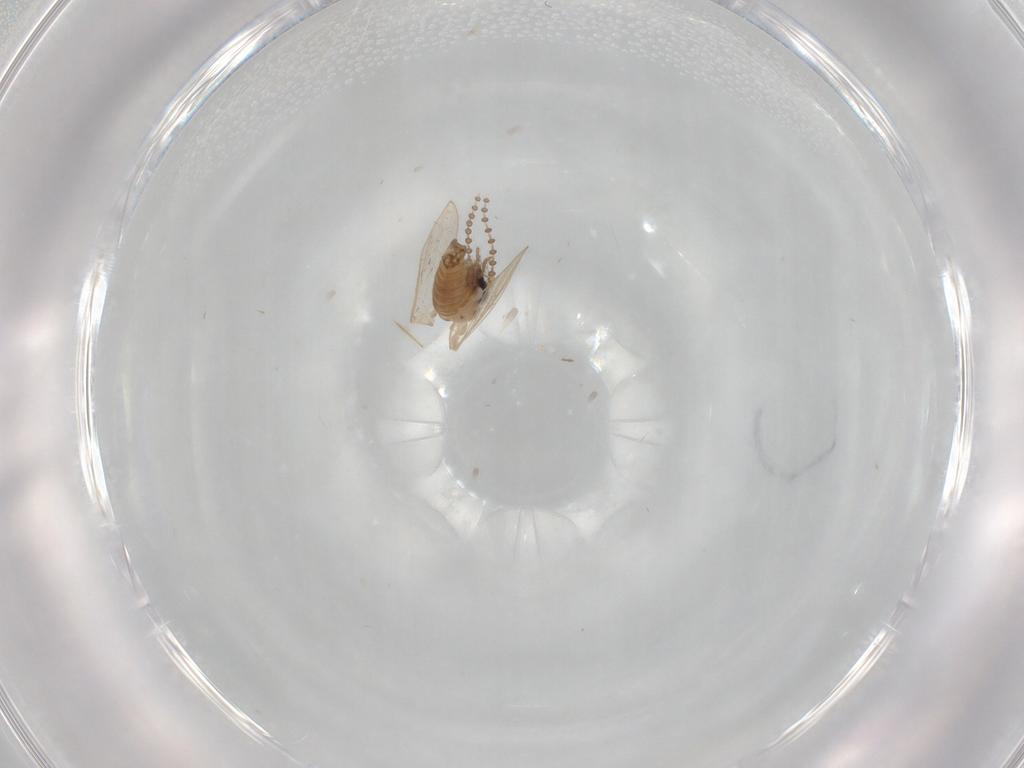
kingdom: Animalia
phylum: Arthropoda
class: Insecta
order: Diptera
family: Ceratopogonidae
